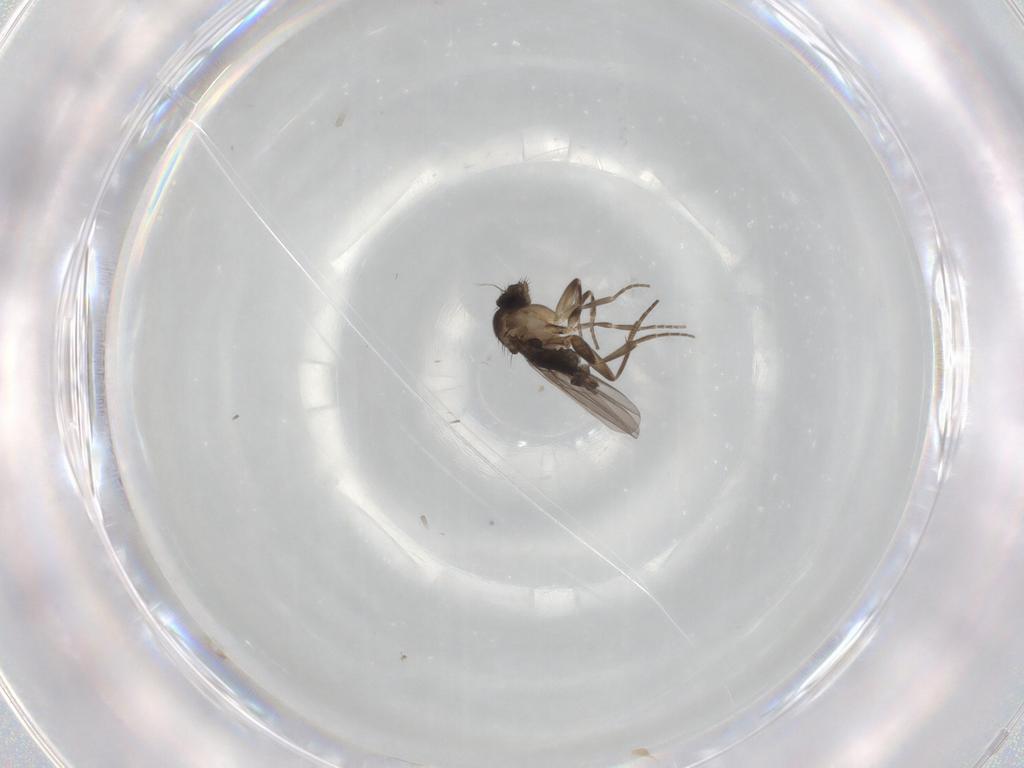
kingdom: Animalia
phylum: Arthropoda
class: Insecta
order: Diptera
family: Phoridae
